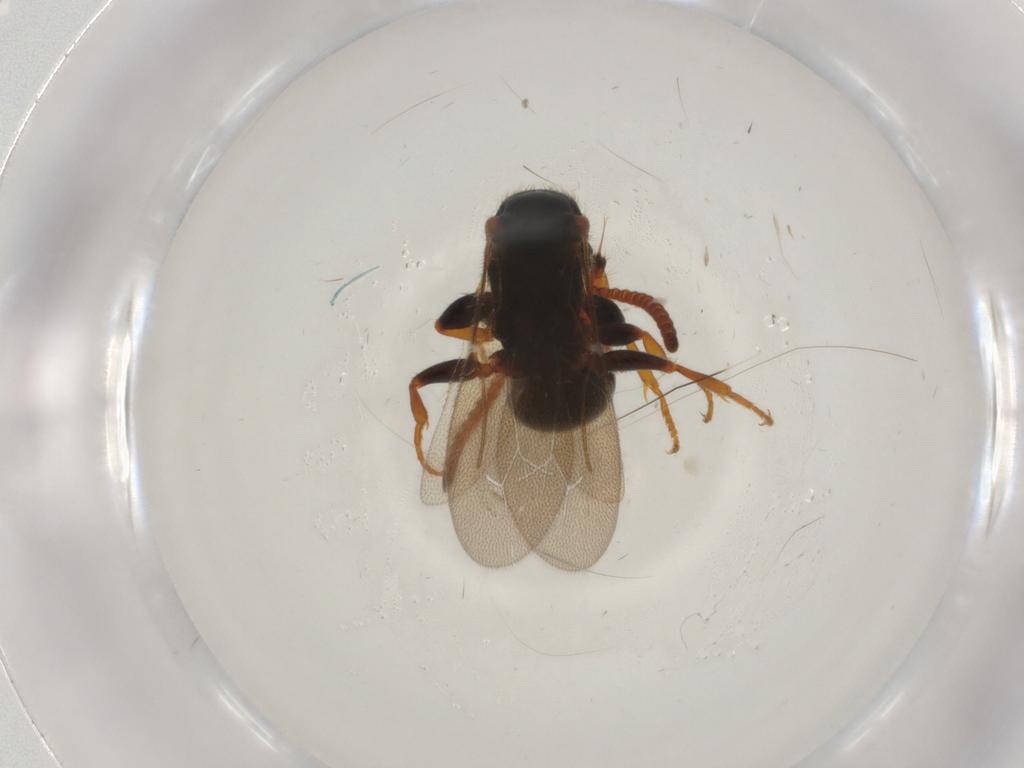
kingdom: Animalia
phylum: Arthropoda
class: Insecta
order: Hymenoptera
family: Bethylidae
